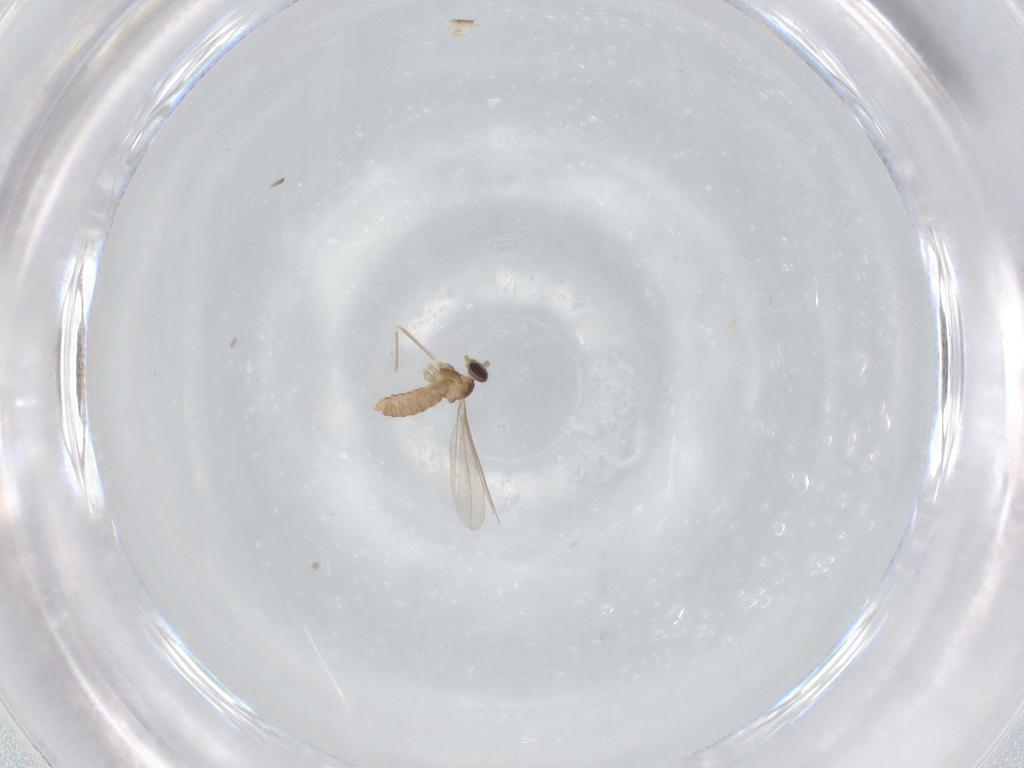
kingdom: Animalia
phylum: Arthropoda
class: Insecta
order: Diptera
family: Cecidomyiidae
